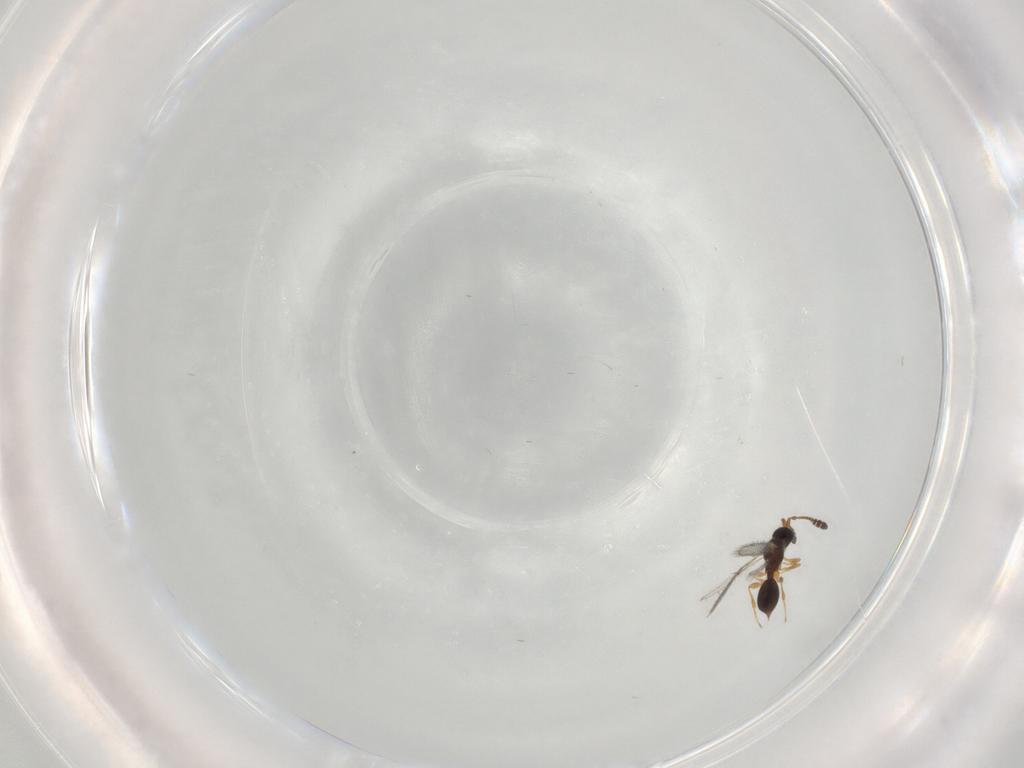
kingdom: Animalia
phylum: Arthropoda
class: Insecta
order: Hymenoptera
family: Diapriidae
